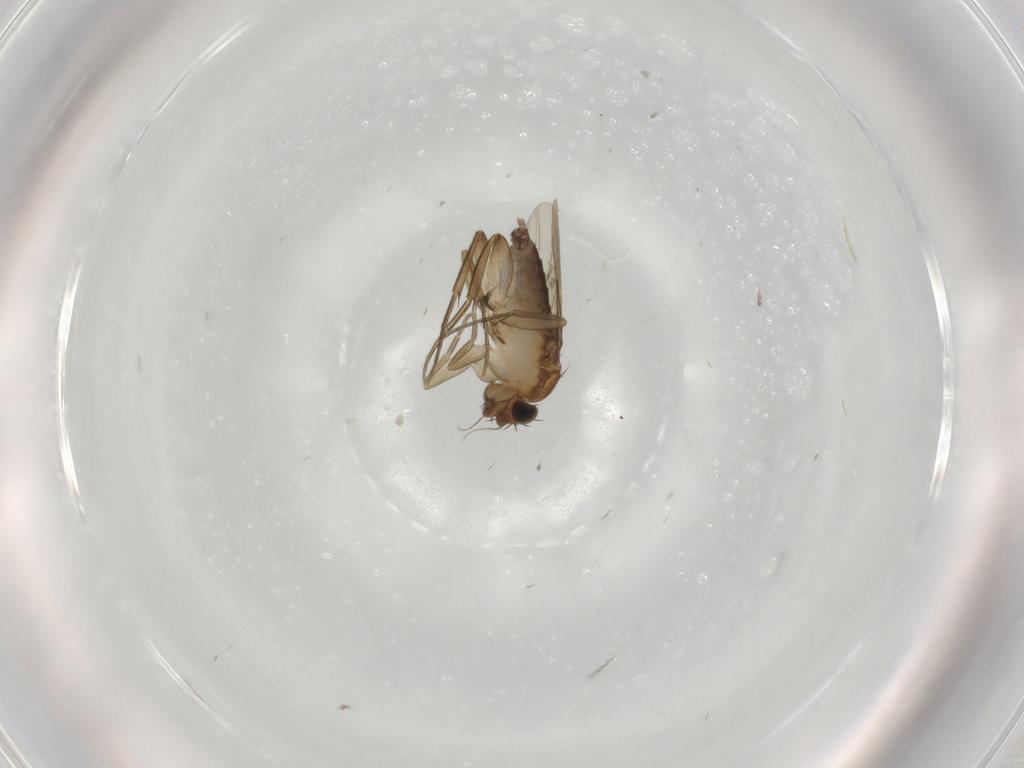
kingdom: Animalia
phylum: Arthropoda
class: Insecta
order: Diptera
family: Phoridae
